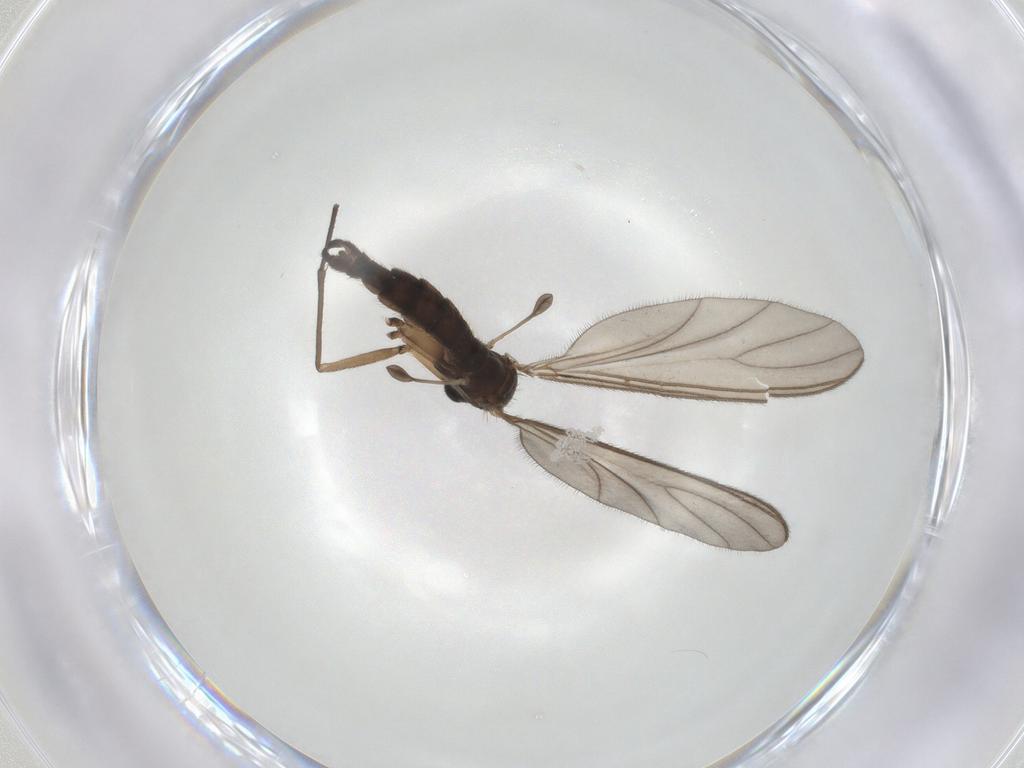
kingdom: Animalia
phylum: Arthropoda
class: Insecta
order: Diptera
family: Sciaridae
